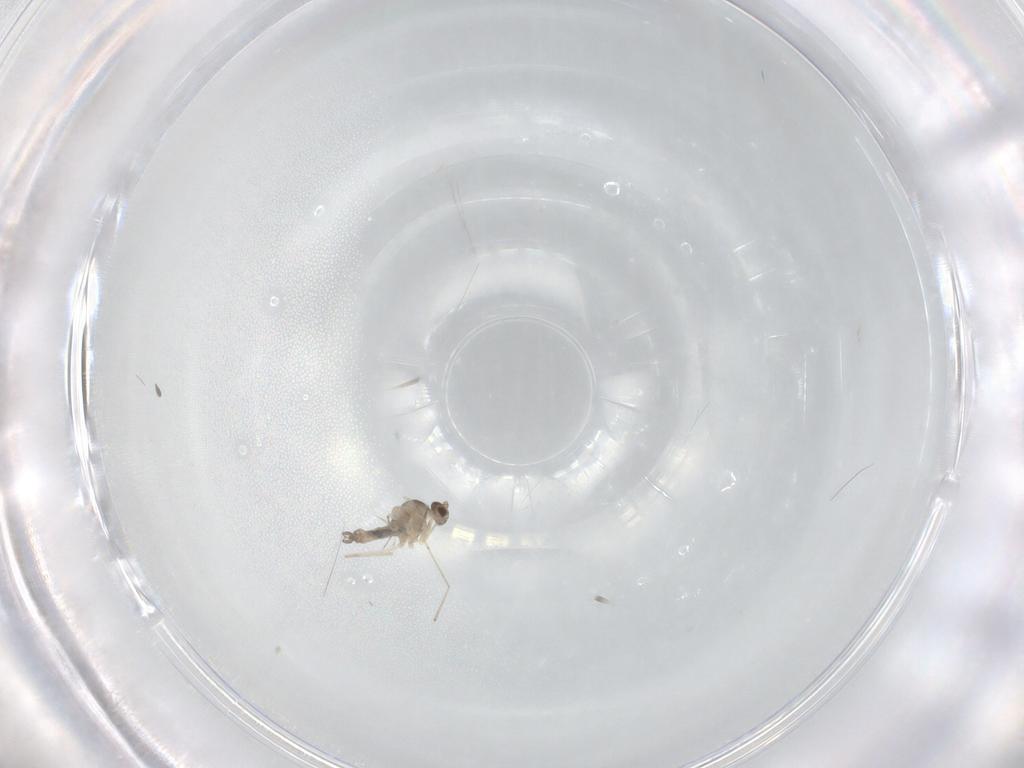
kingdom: Animalia
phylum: Arthropoda
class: Insecta
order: Diptera
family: Cecidomyiidae
